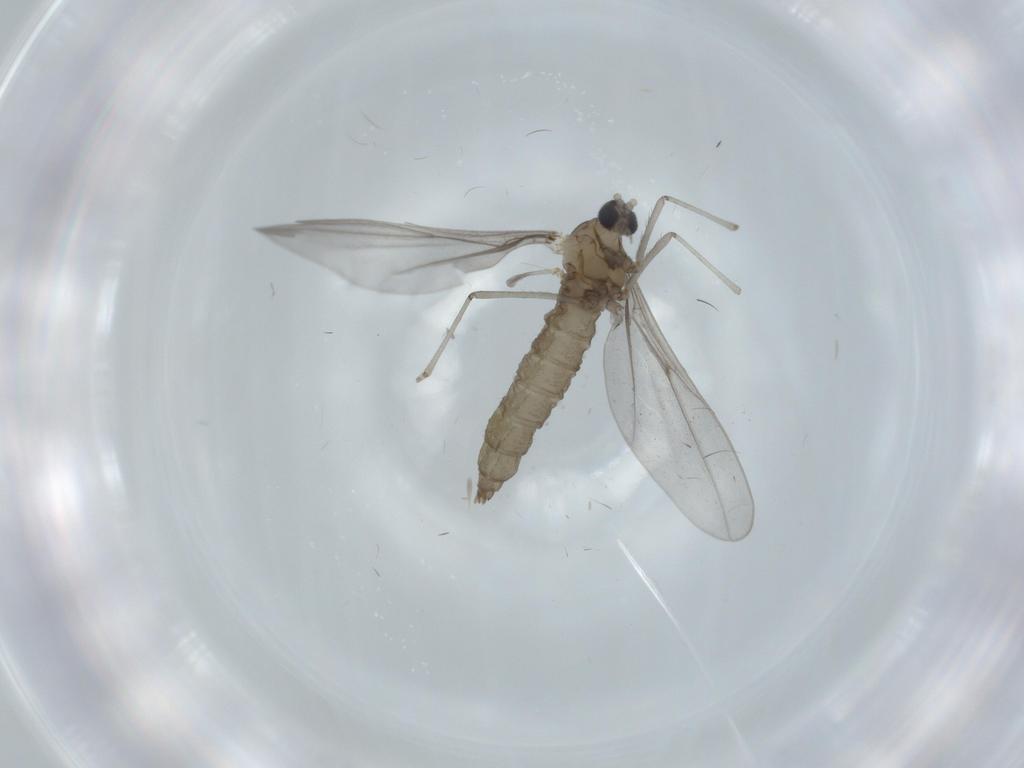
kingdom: Animalia
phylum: Arthropoda
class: Insecta
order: Diptera
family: Cecidomyiidae
